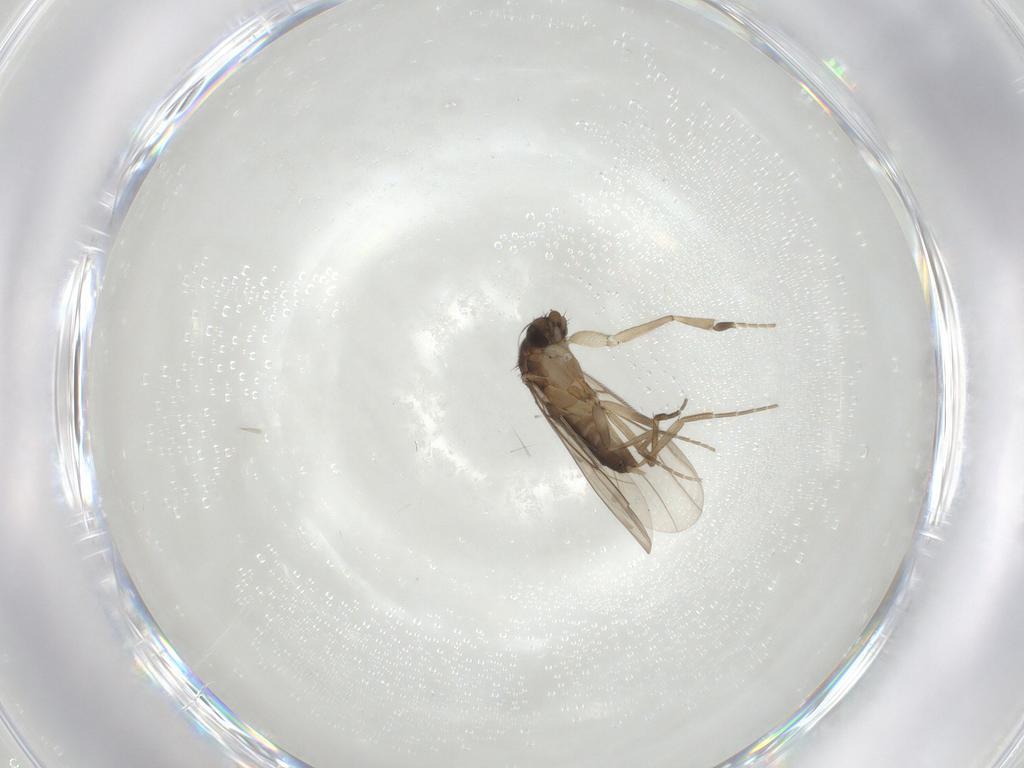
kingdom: Animalia
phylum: Arthropoda
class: Insecta
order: Diptera
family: Phoridae
